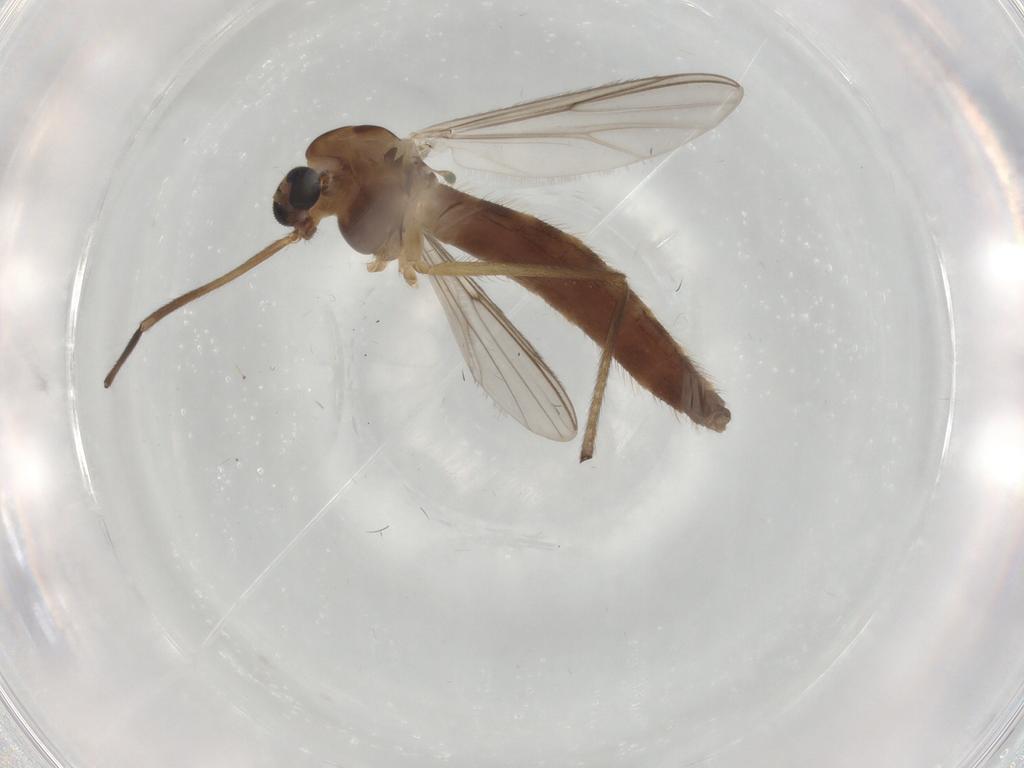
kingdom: Animalia
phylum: Arthropoda
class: Insecta
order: Diptera
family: Chironomidae
